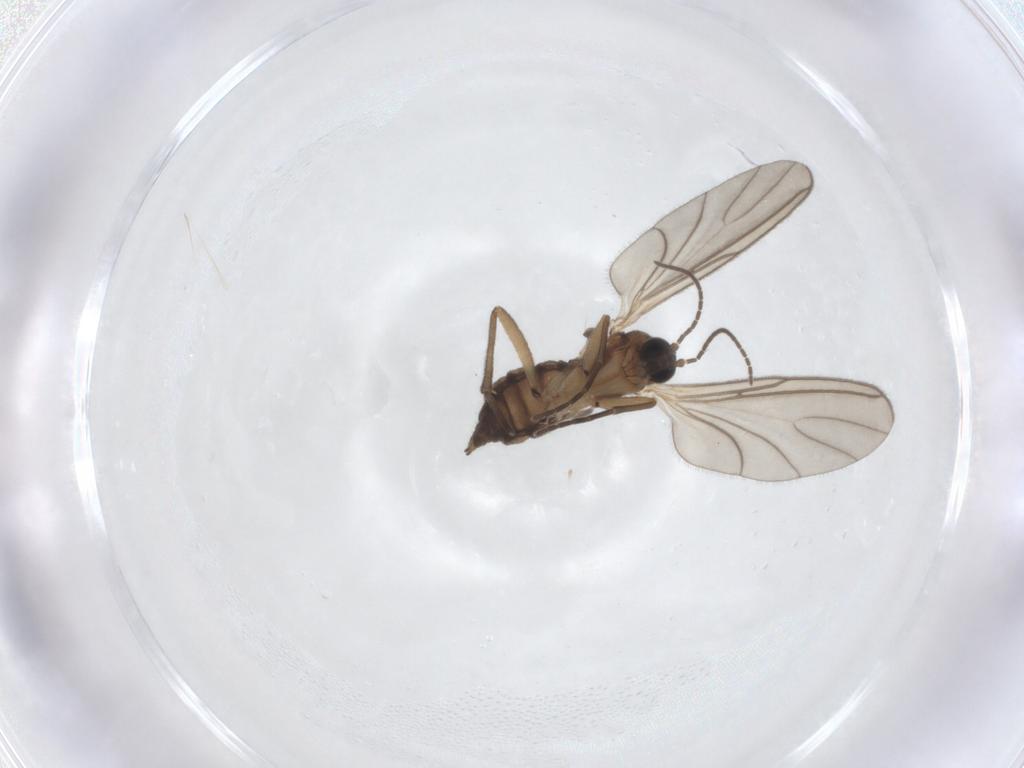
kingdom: Animalia
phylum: Arthropoda
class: Insecta
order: Diptera
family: Sciaridae
